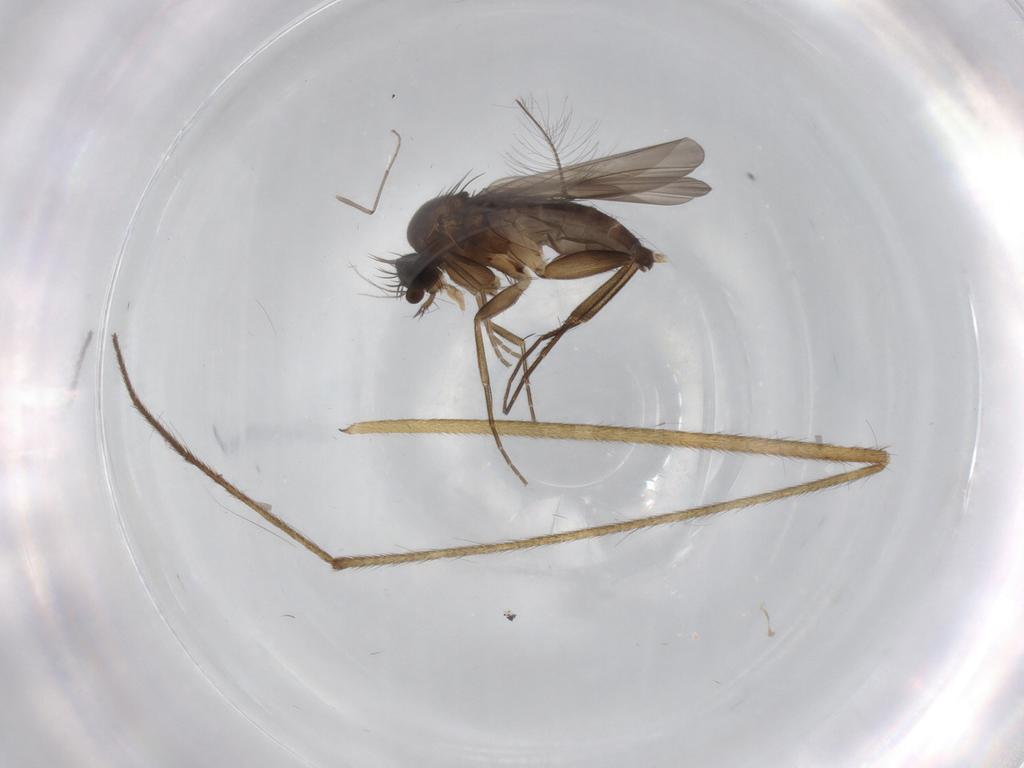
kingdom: Animalia
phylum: Arthropoda
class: Insecta
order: Diptera
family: Phoridae
